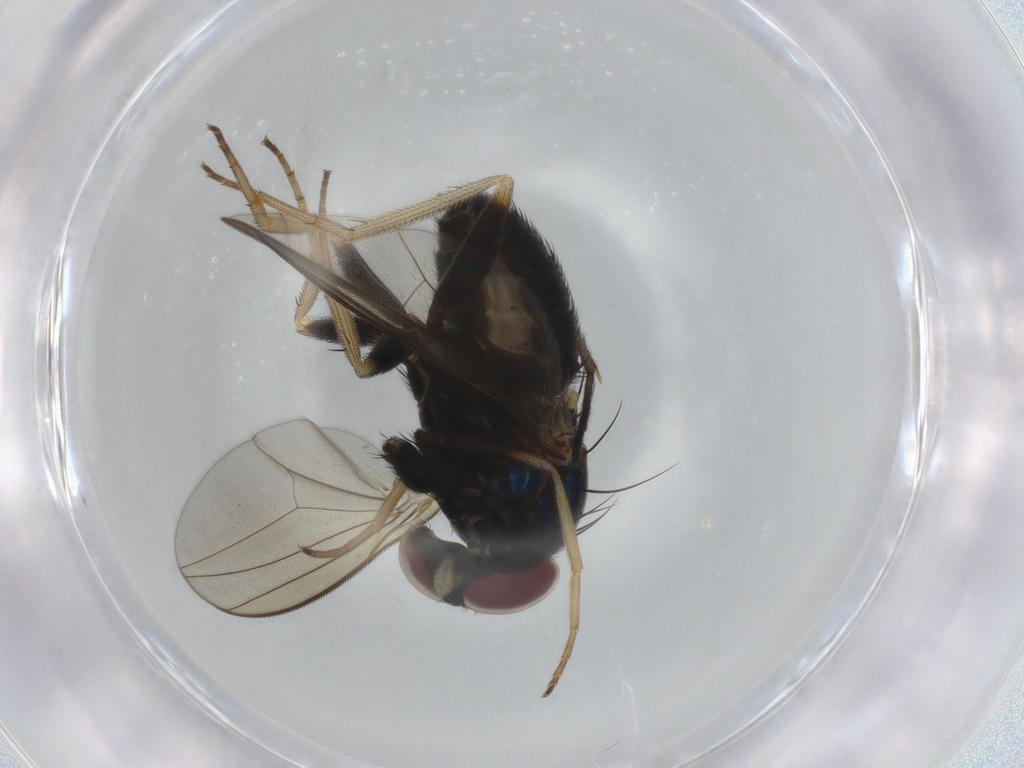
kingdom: Animalia
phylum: Arthropoda
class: Insecta
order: Diptera
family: Dolichopodidae
